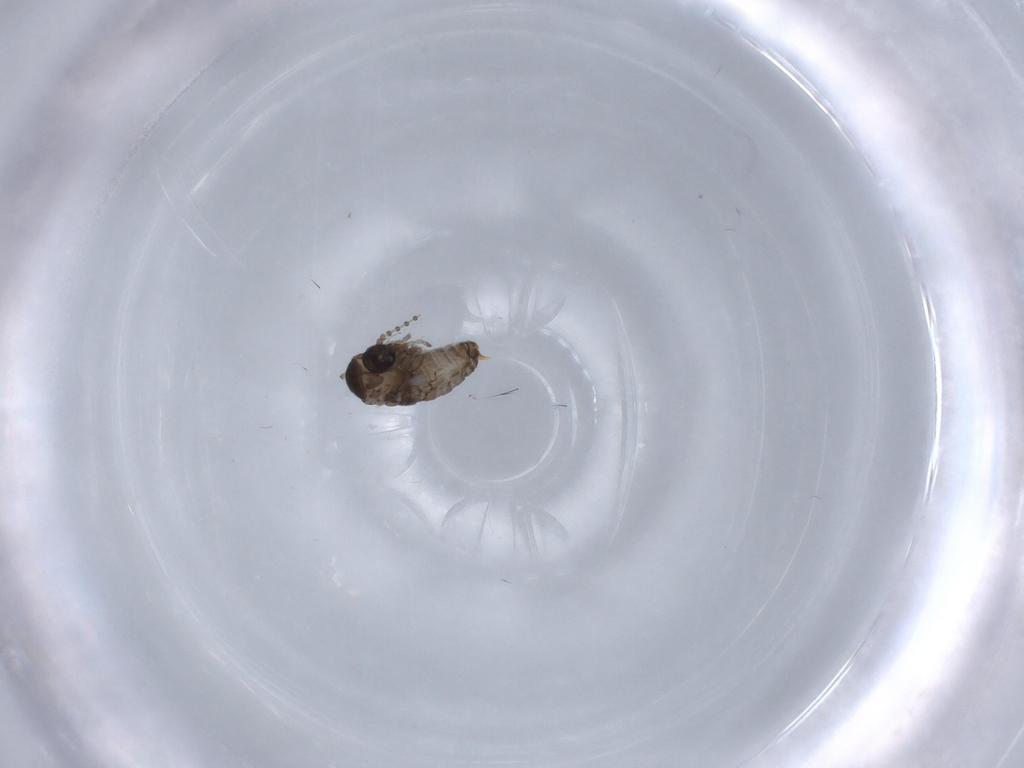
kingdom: Animalia
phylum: Arthropoda
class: Insecta
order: Diptera
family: Psychodidae
